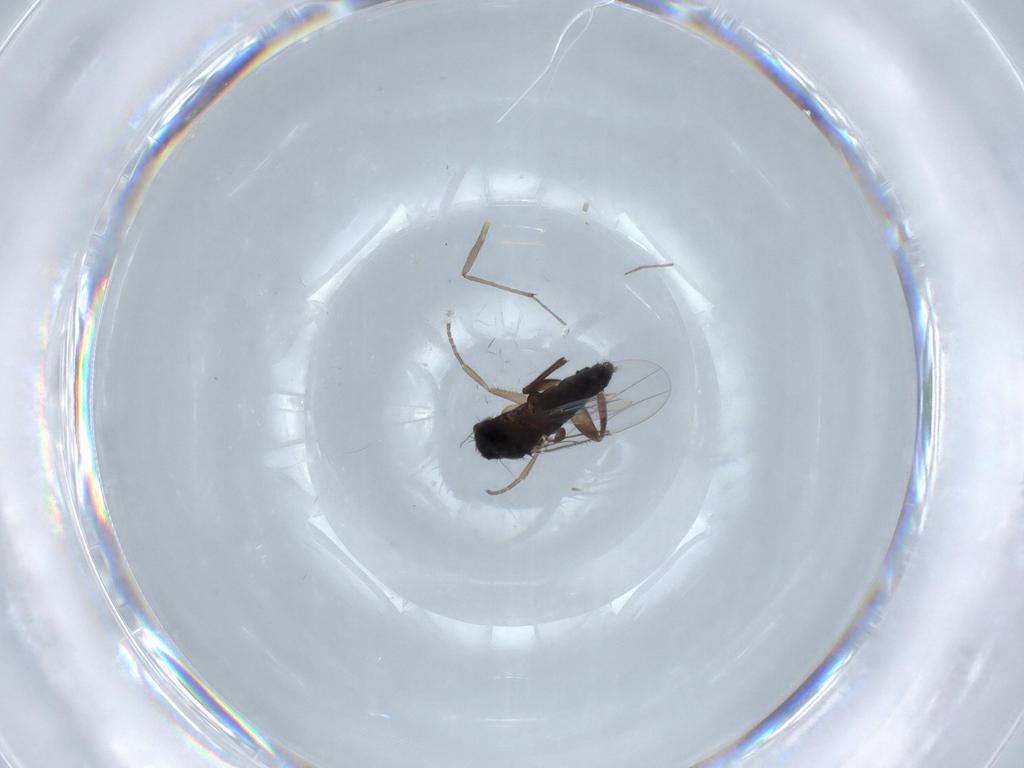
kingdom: Animalia
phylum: Arthropoda
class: Insecta
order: Diptera
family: Phoridae
